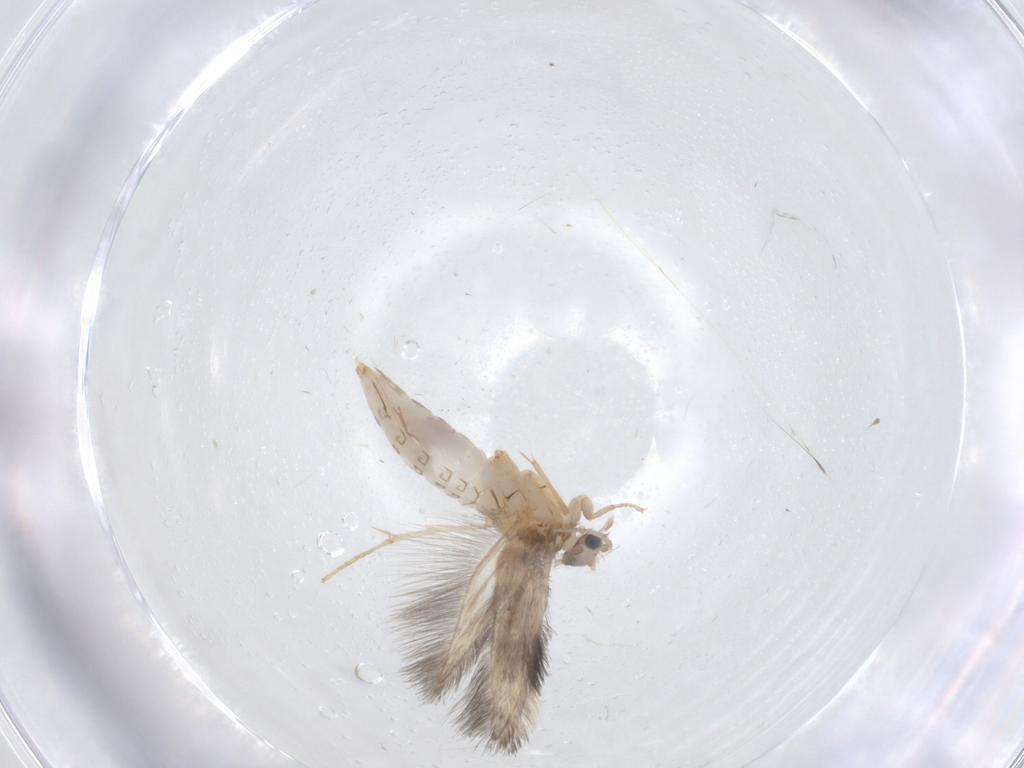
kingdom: Animalia
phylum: Arthropoda
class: Insecta
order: Trichoptera
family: Hydroptilidae
